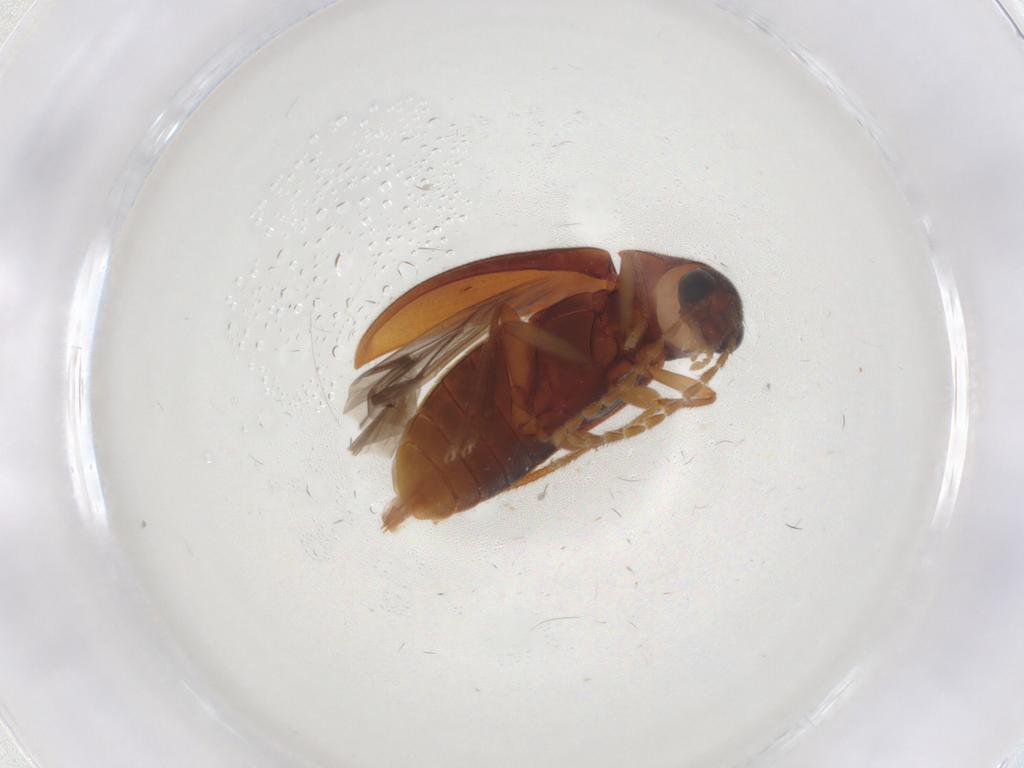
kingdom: Animalia
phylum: Arthropoda
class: Insecta
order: Coleoptera
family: Ptilodactylidae
